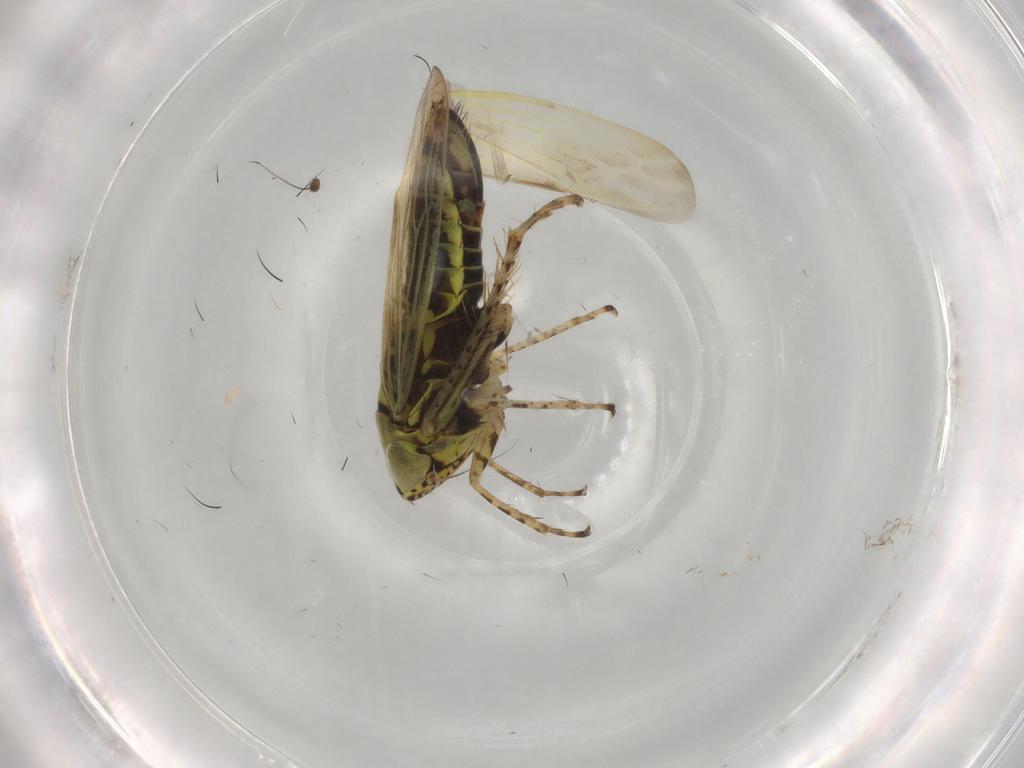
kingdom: Animalia
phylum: Arthropoda
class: Insecta
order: Hemiptera
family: Cicadellidae
